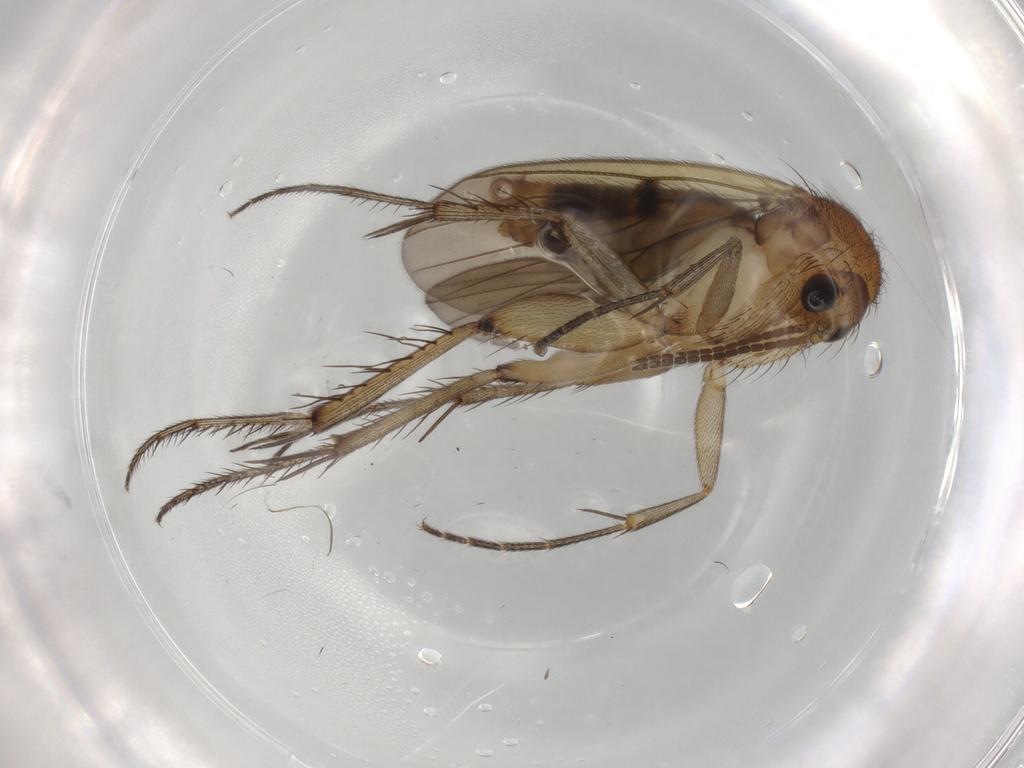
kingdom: Animalia
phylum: Arthropoda
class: Insecta
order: Diptera
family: Mycetophilidae
